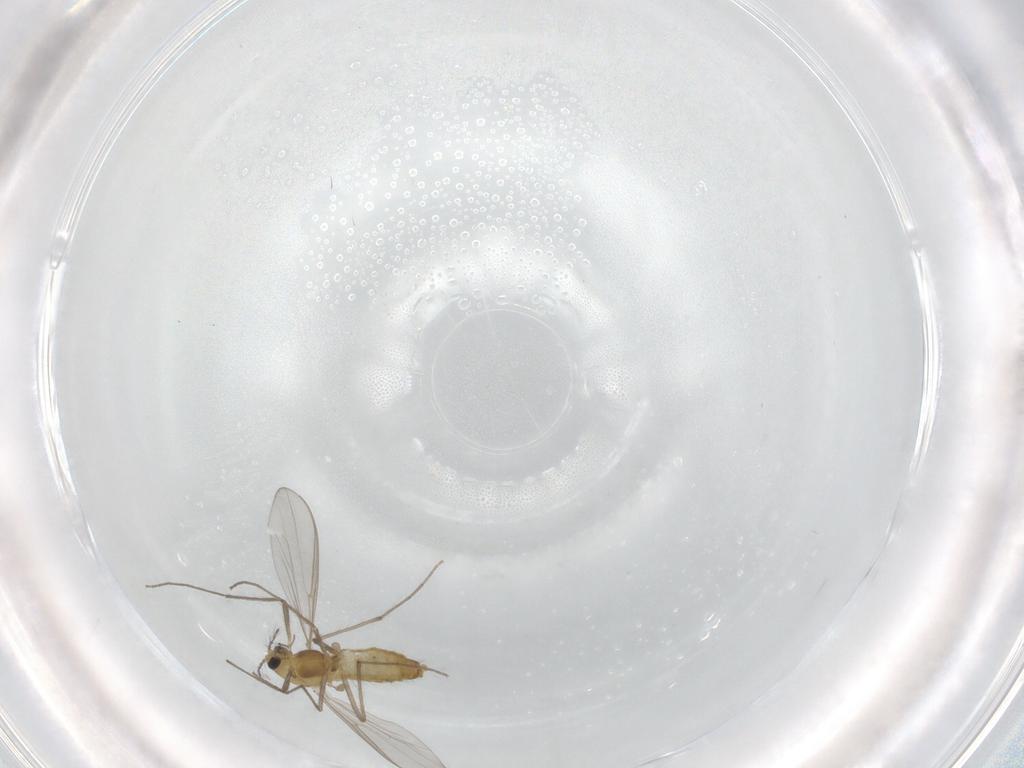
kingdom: Animalia
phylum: Arthropoda
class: Insecta
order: Diptera
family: Chironomidae
